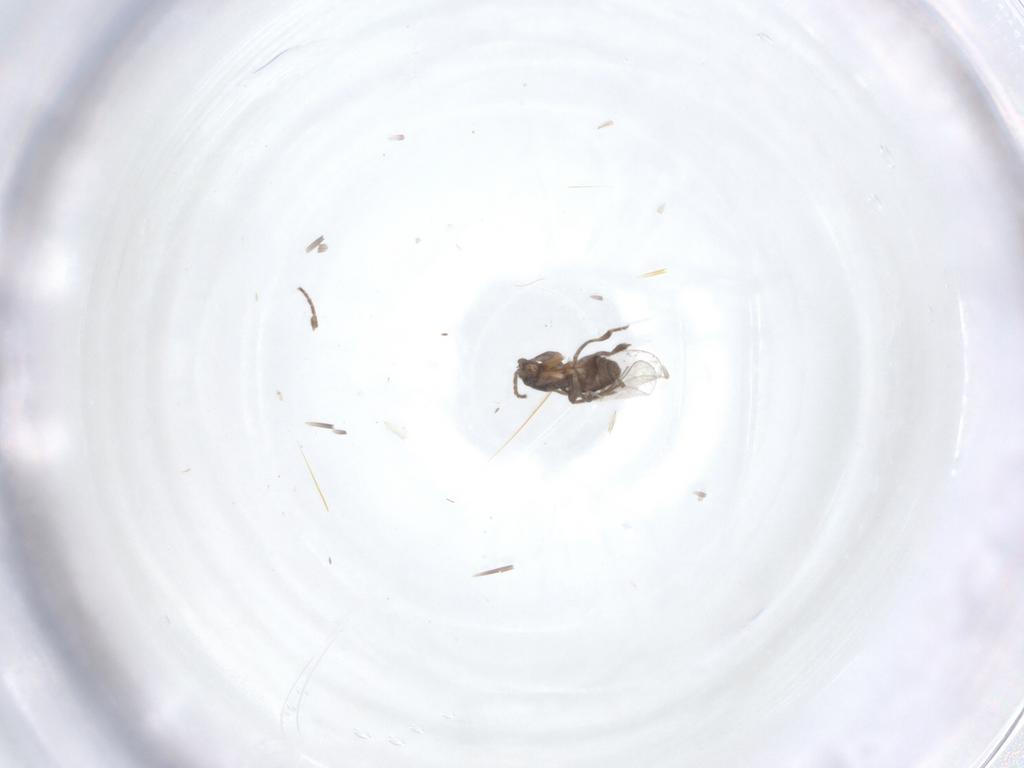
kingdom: Animalia
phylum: Arthropoda
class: Insecta
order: Diptera
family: Phoridae
